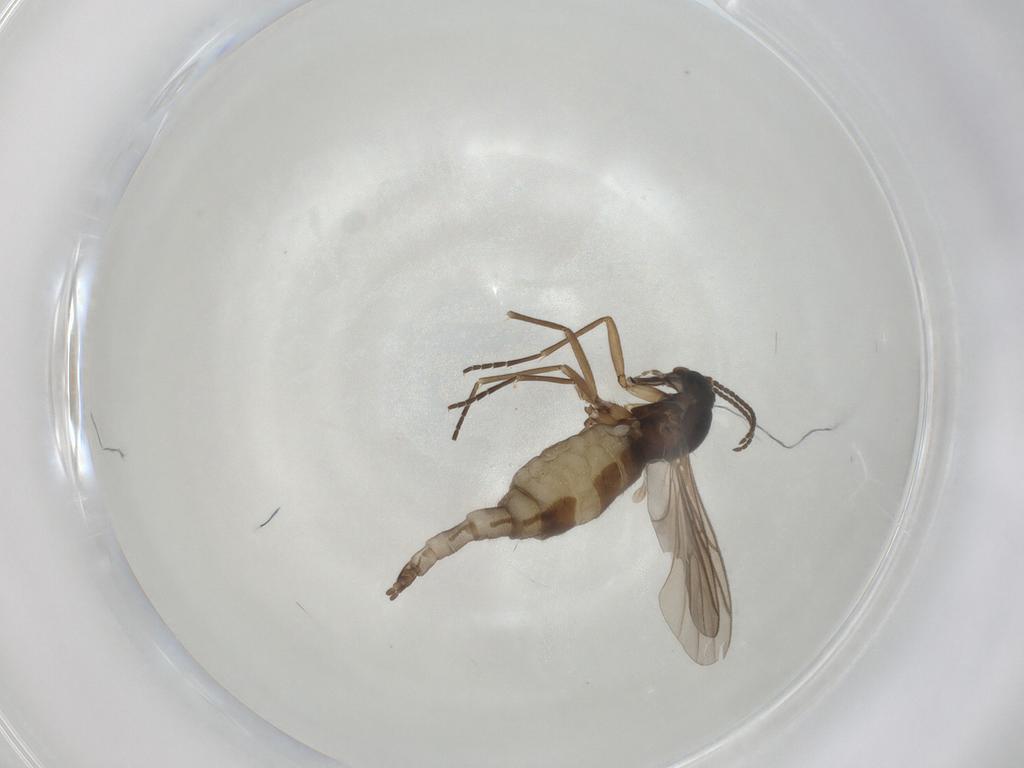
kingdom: Animalia
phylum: Arthropoda
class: Insecta
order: Diptera
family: Sciaridae
